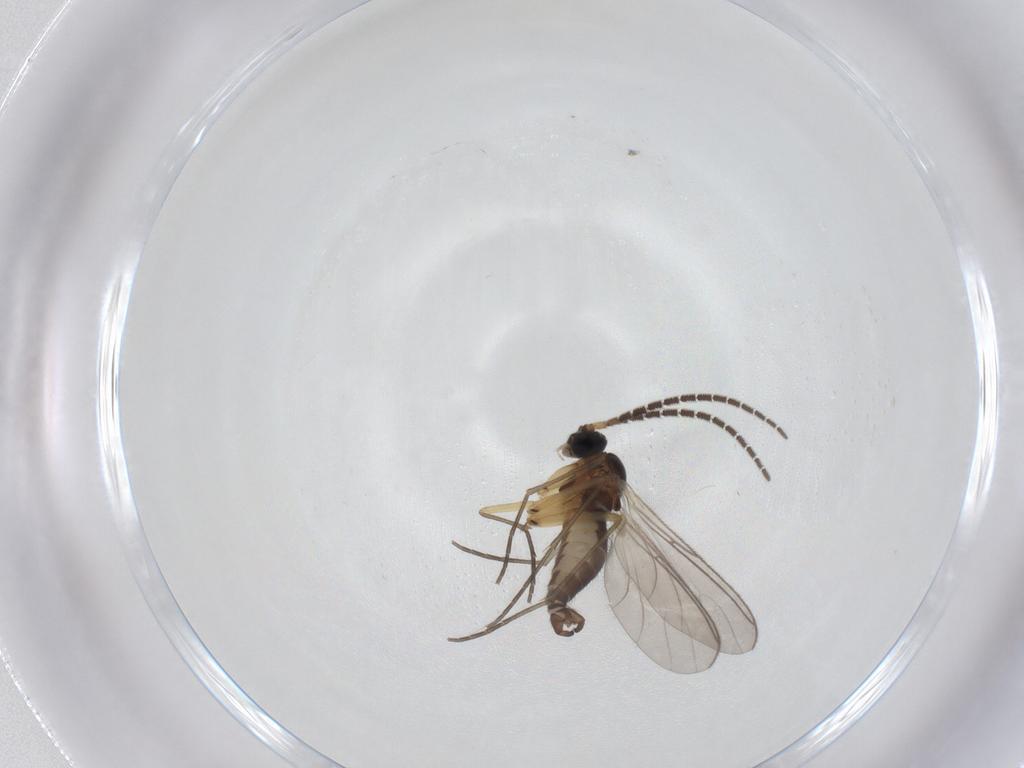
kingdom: Animalia
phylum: Arthropoda
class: Insecta
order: Diptera
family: Sciaridae
